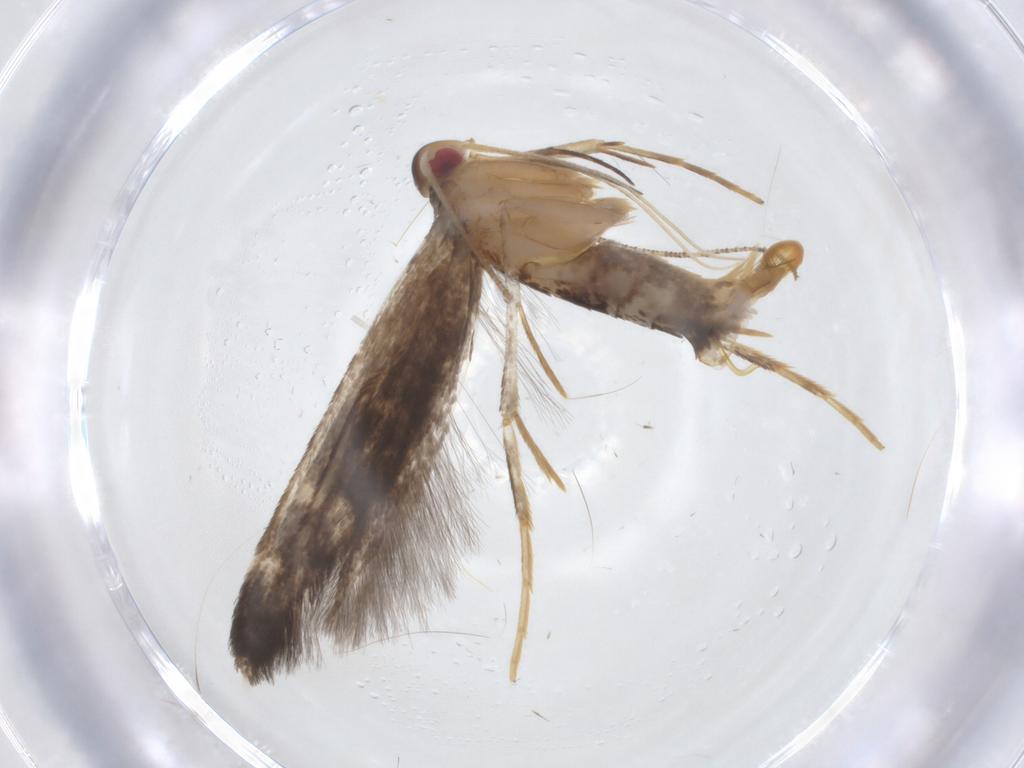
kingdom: Animalia
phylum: Arthropoda
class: Insecta
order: Lepidoptera
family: Cosmopterigidae
